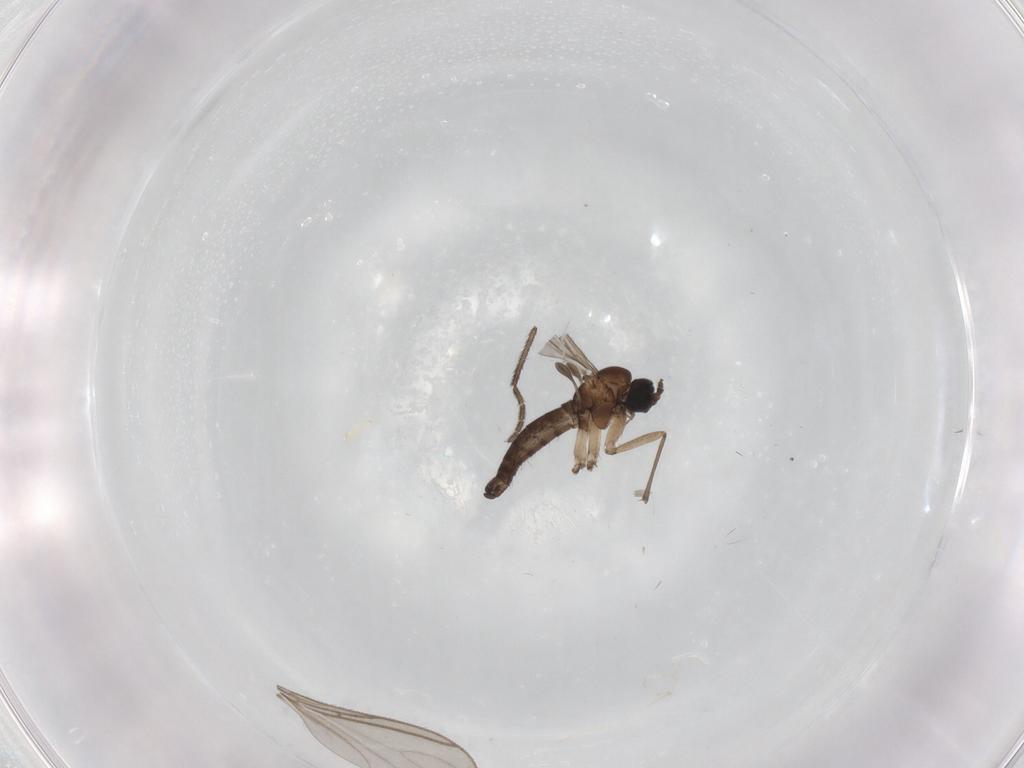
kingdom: Animalia
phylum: Arthropoda
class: Insecta
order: Diptera
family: Sciaridae
